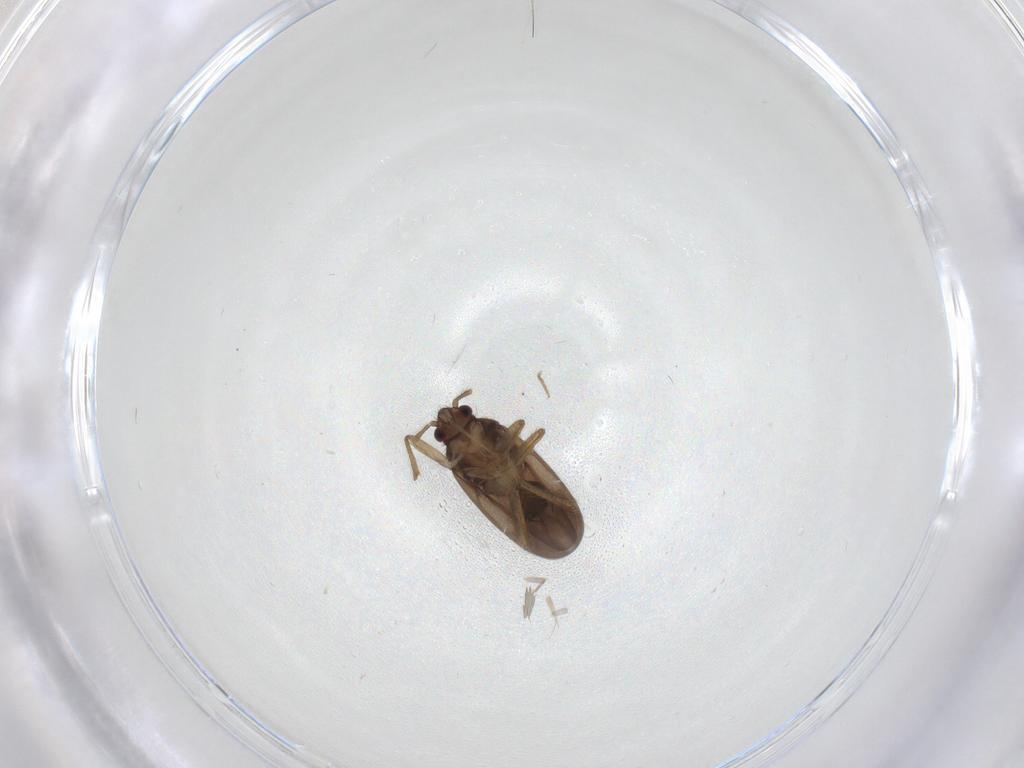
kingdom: Animalia
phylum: Arthropoda
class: Insecta
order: Hemiptera
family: Ceratocombidae
